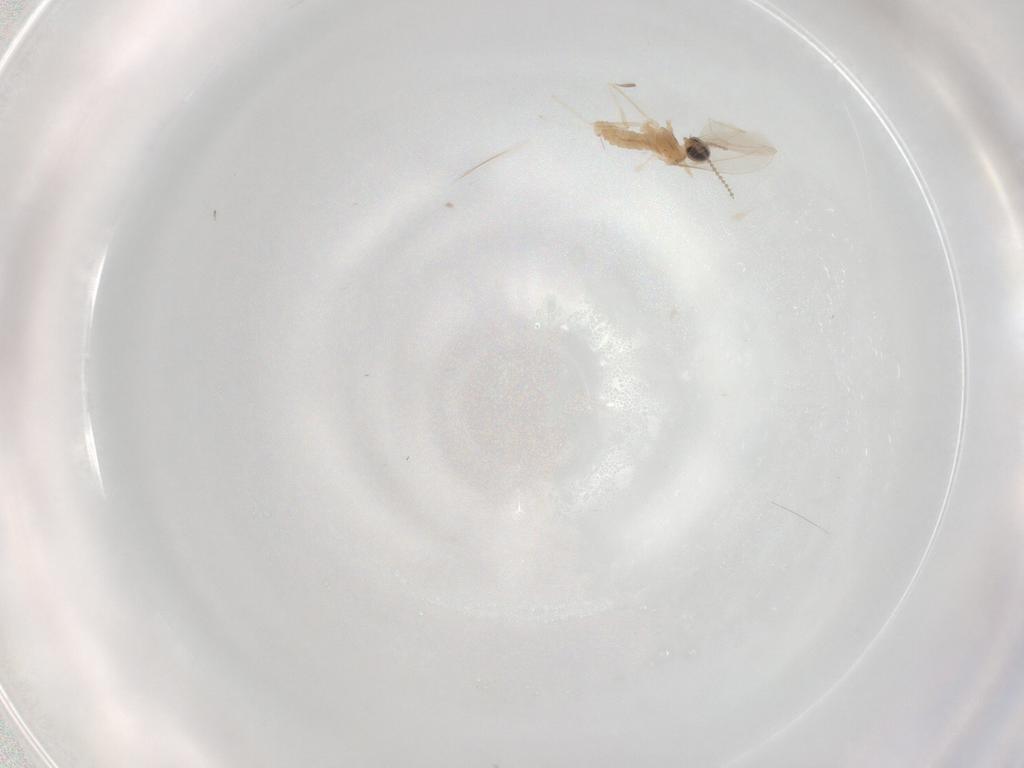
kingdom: Animalia
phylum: Arthropoda
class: Insecta
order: Diptera
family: Cecidomyiidae
